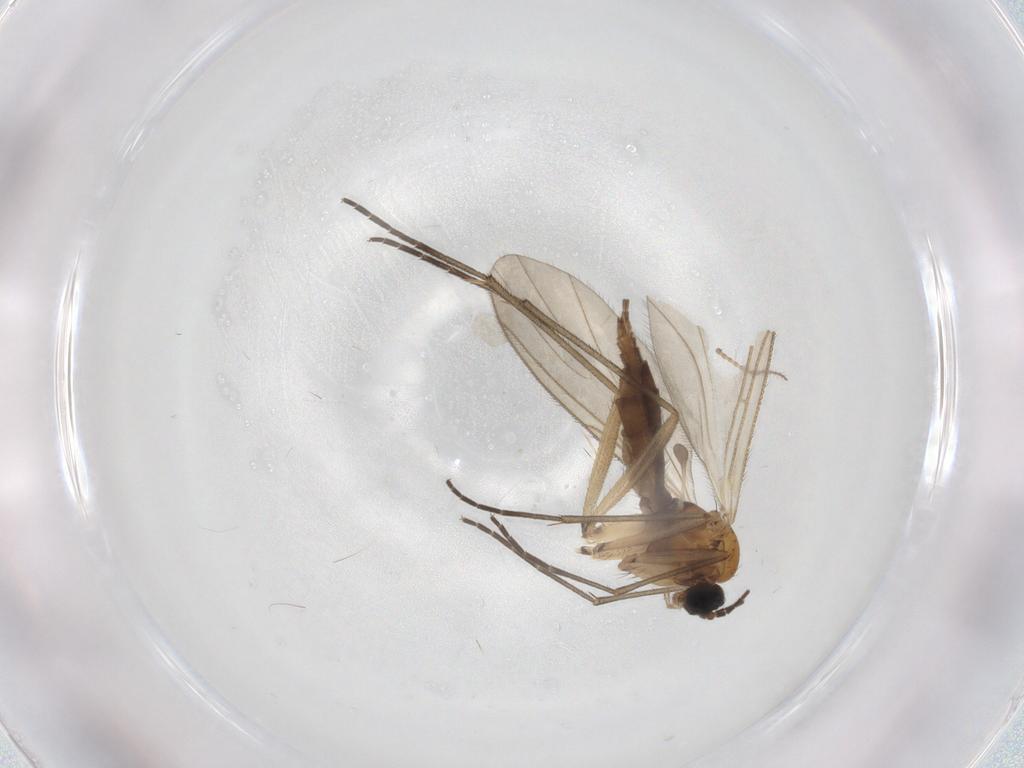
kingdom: Animalia
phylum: Arthropoda
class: Insecta
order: Diptera
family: Sciaridae
